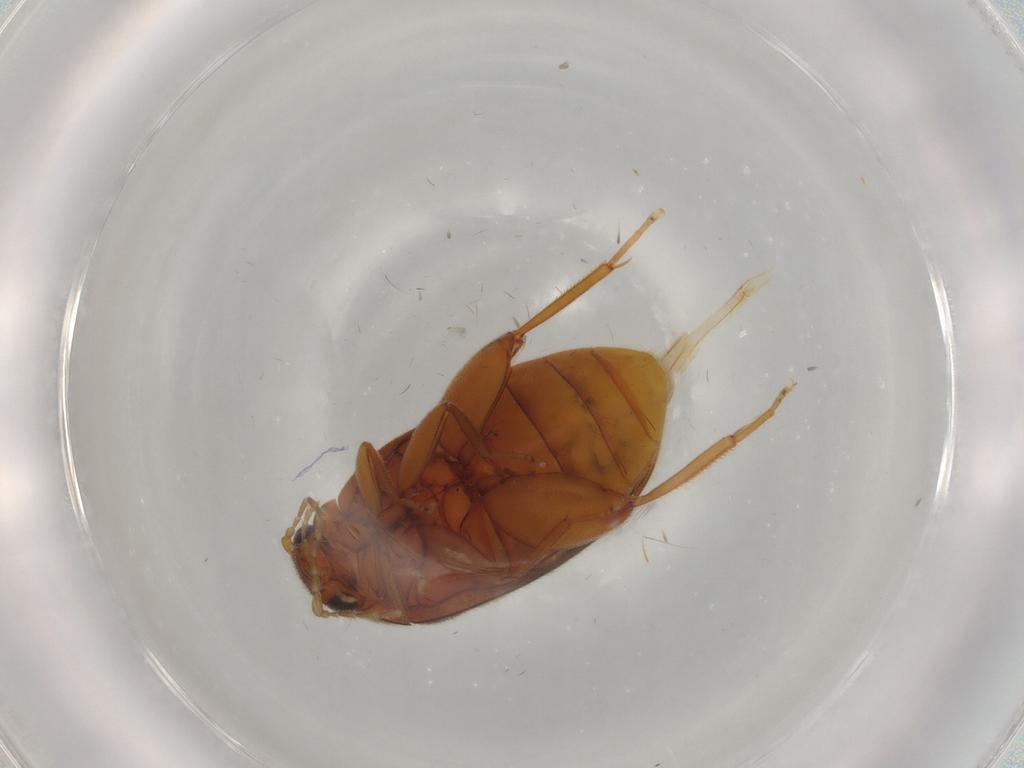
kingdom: Animalia
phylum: Arthropoda
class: Insecta
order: Coleoptera
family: Scirtidae
